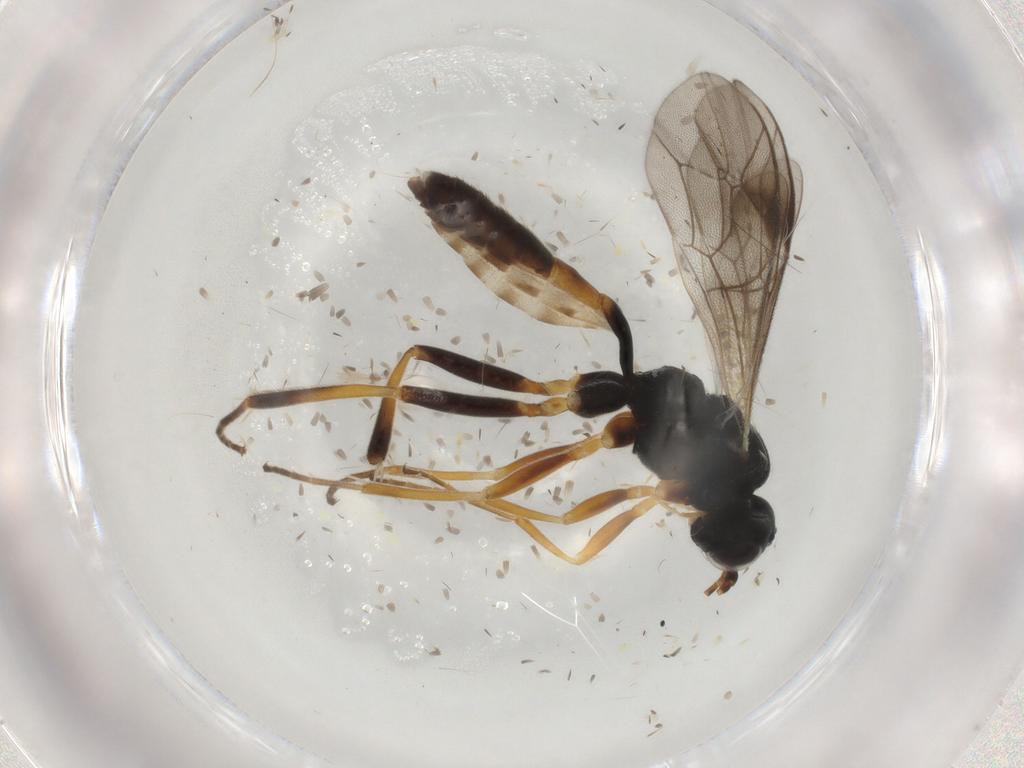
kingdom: Animalia
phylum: Arthropoda
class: Insecta
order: Hymenoptera
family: Ichneumonidae
